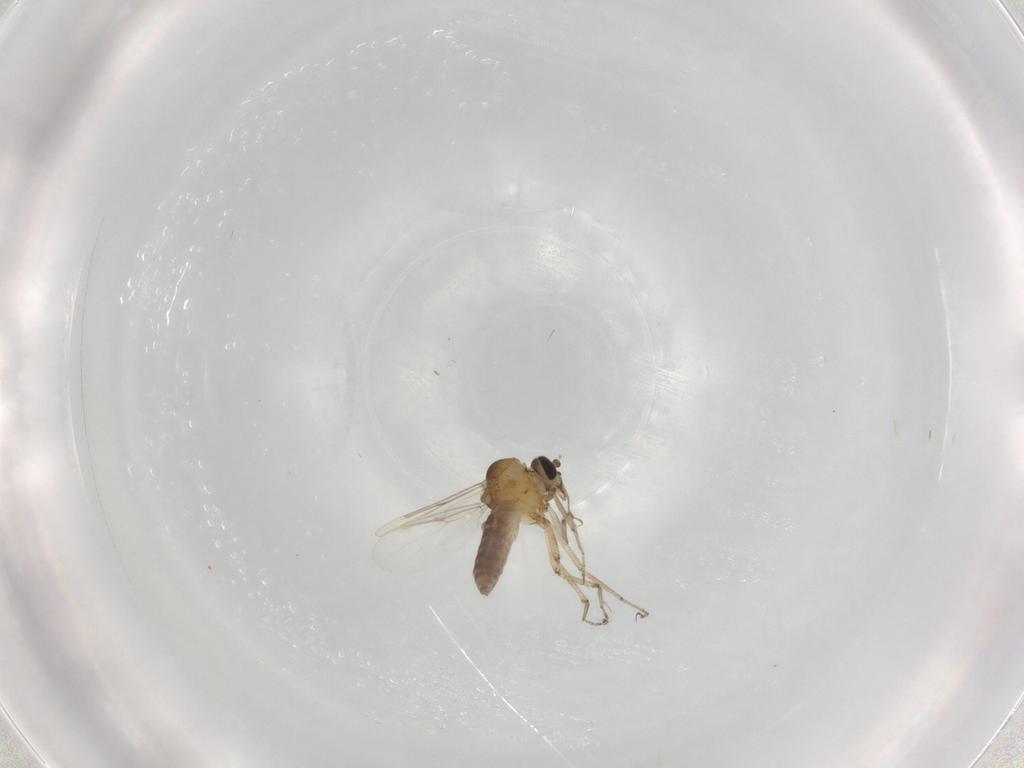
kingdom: Animalia
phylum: Arthropoda
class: Insecta
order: Diptera
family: Ceratopogonidae
